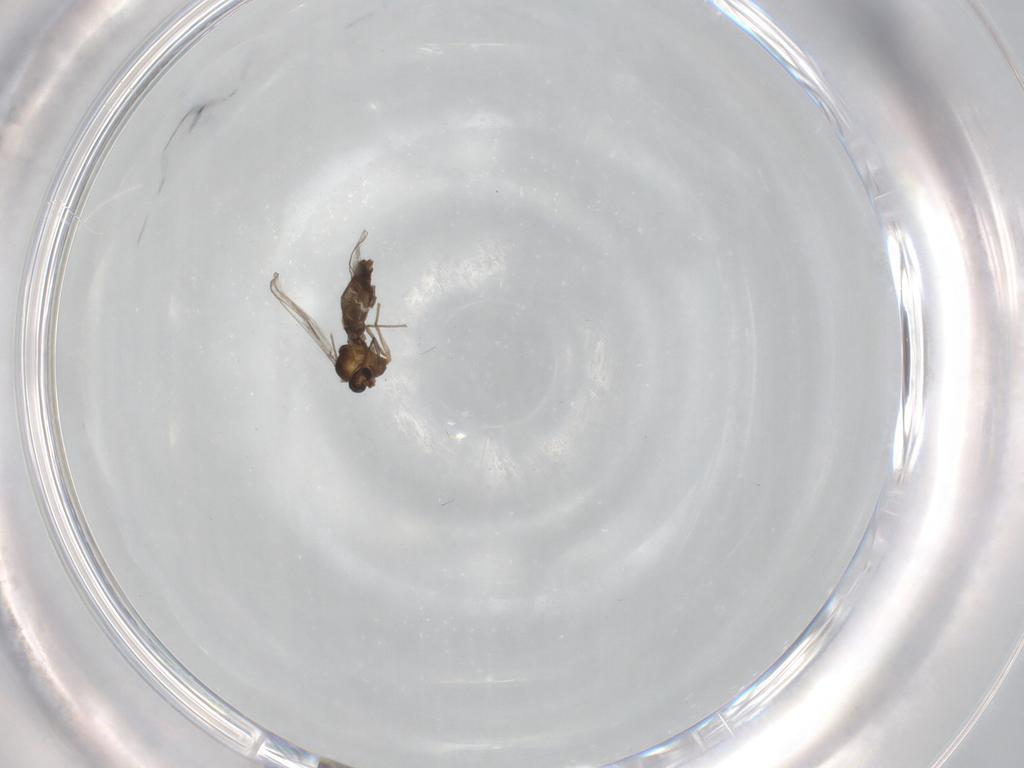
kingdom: Animalia
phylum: Arthropoda
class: Insecta
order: Diptera
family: Chironomidae
